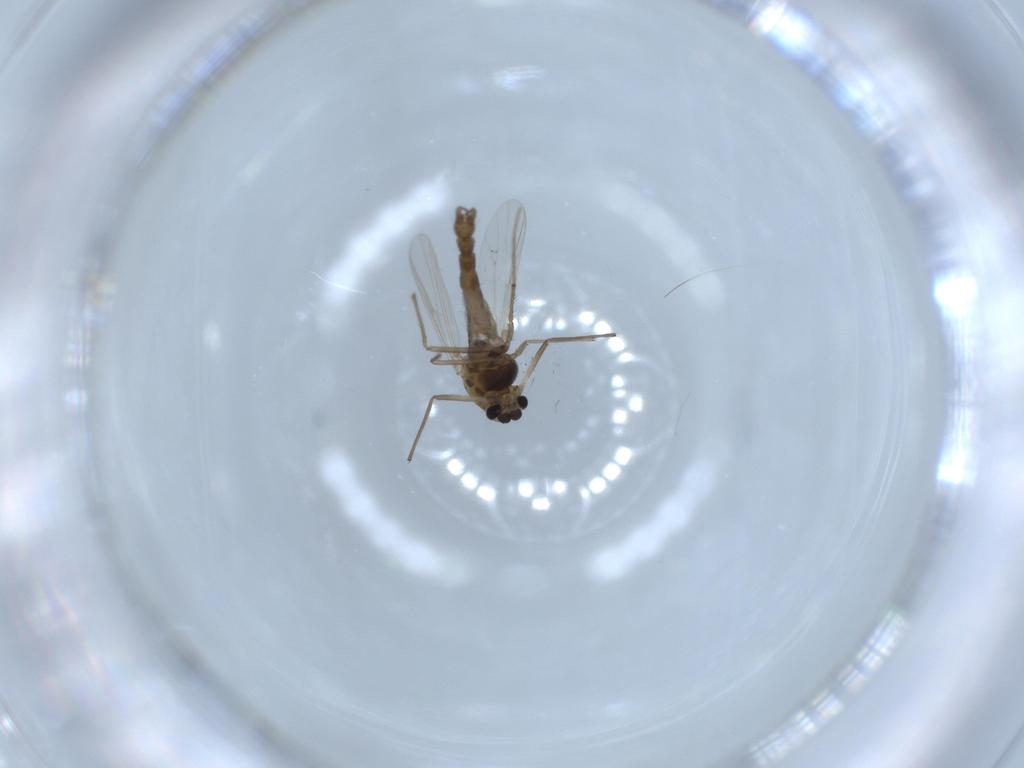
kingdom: Animalia
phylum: Arthropoda
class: Insecta
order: Diptera
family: Chironomidae
